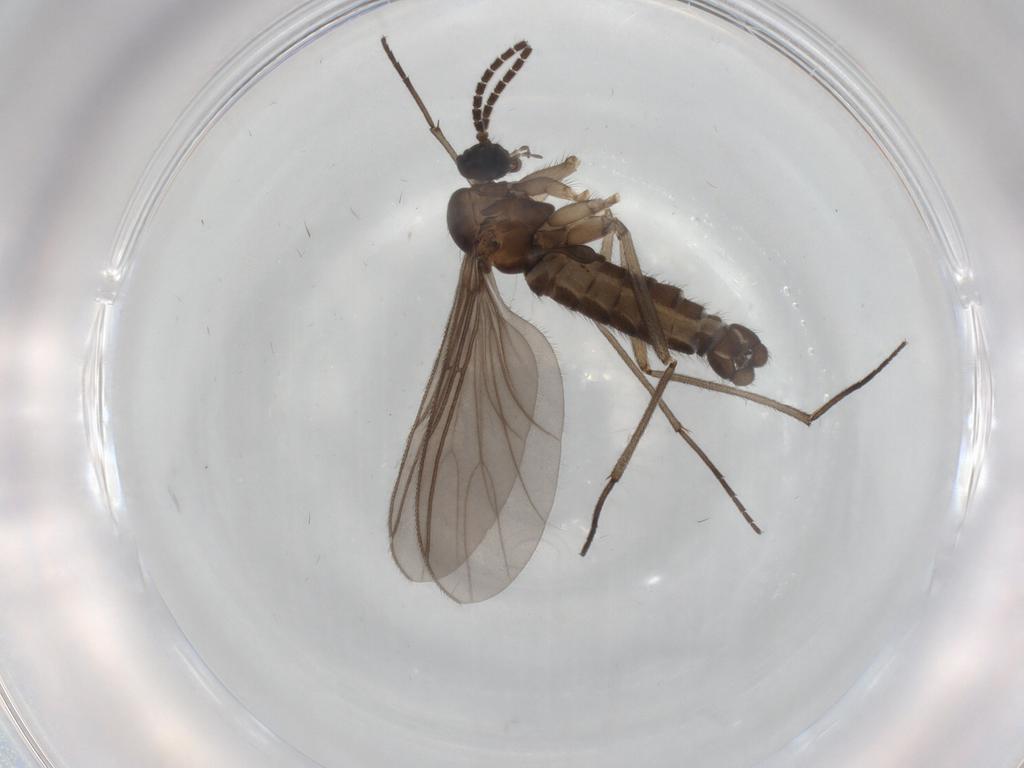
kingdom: Animalia
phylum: Arthropoda
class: Insecta
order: Diptera
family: Sciaridae
